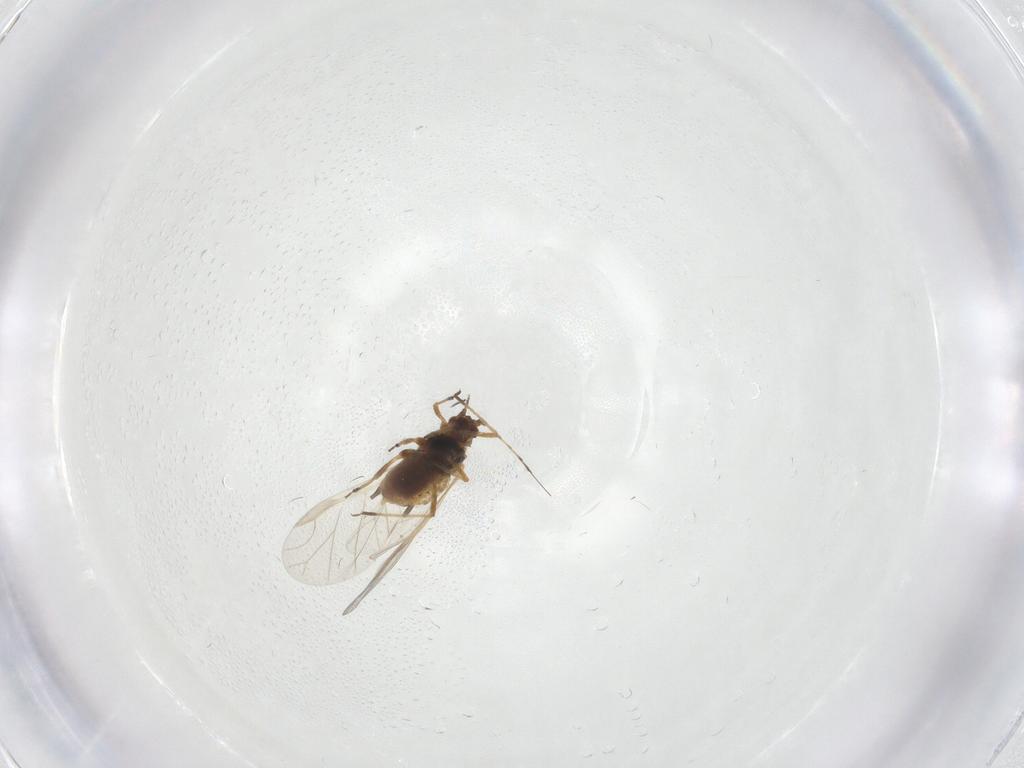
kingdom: Animalia
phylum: Arthropoda
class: Insecta
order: Hemiptera
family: Aphididae
